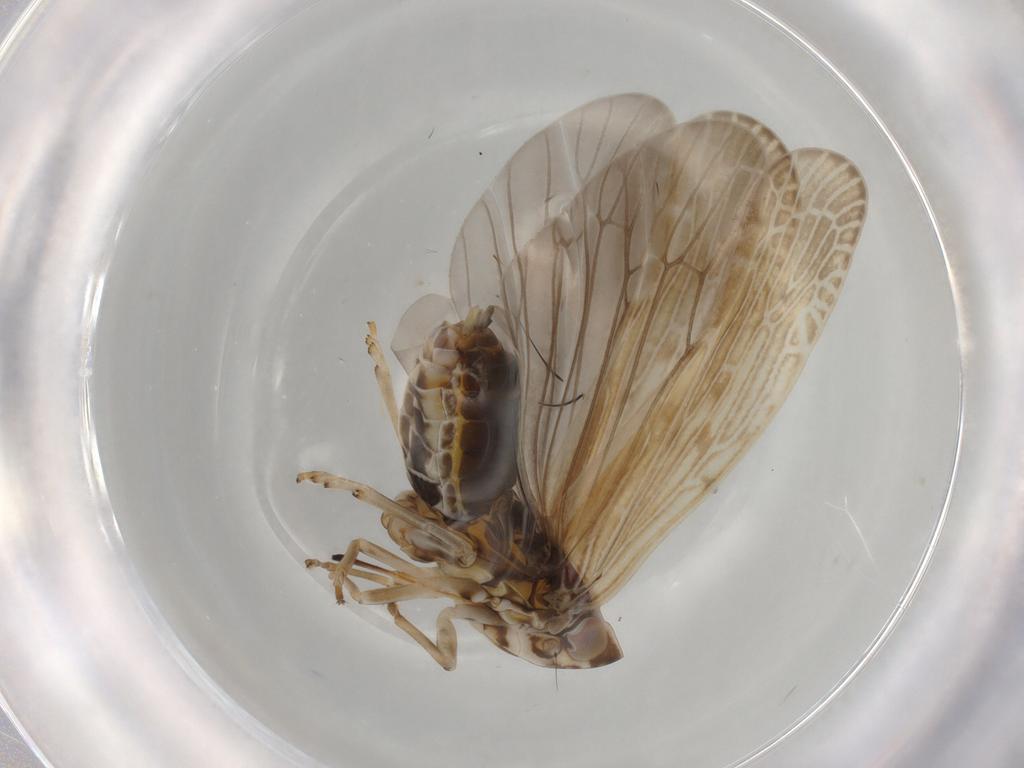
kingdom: Animalia
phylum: Arthropoda
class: Insecta
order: Hemiptera
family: Achilidae
